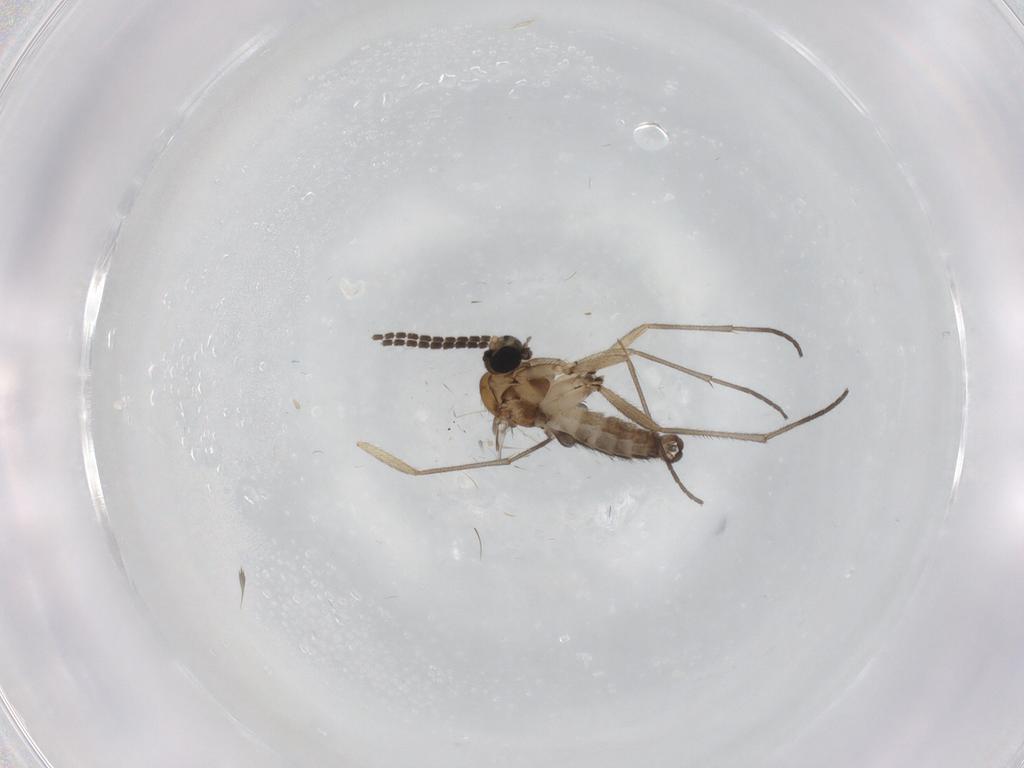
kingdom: Animalia
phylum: Arthropoda
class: Insecta
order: Diptera
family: Sciaridae
